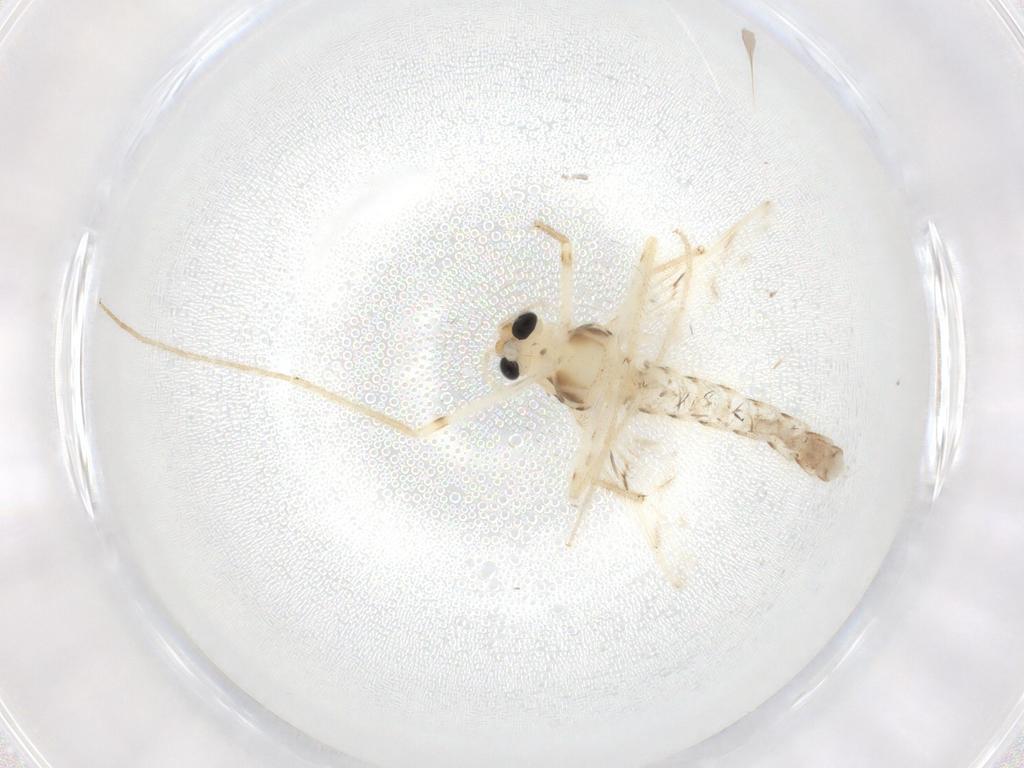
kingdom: Animalia
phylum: Arthropoda
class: Insecta
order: Diptera
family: Chironomidae
